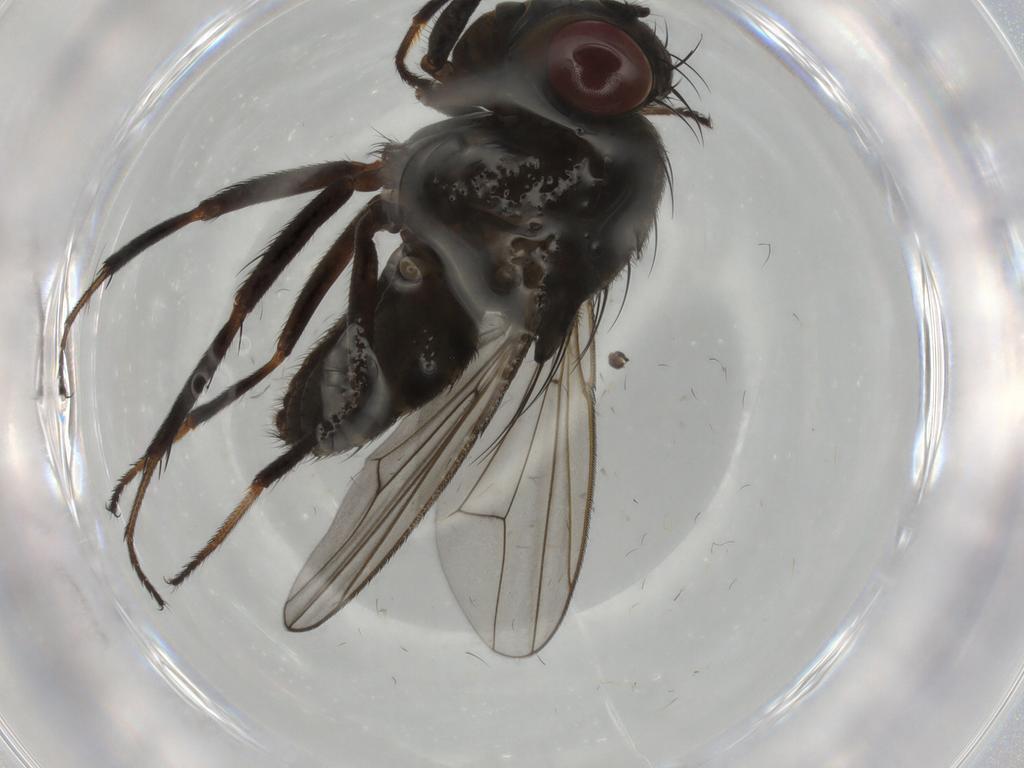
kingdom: Animalia
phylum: Arthropoda
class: Insecta
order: Diptera
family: Ephydridae
